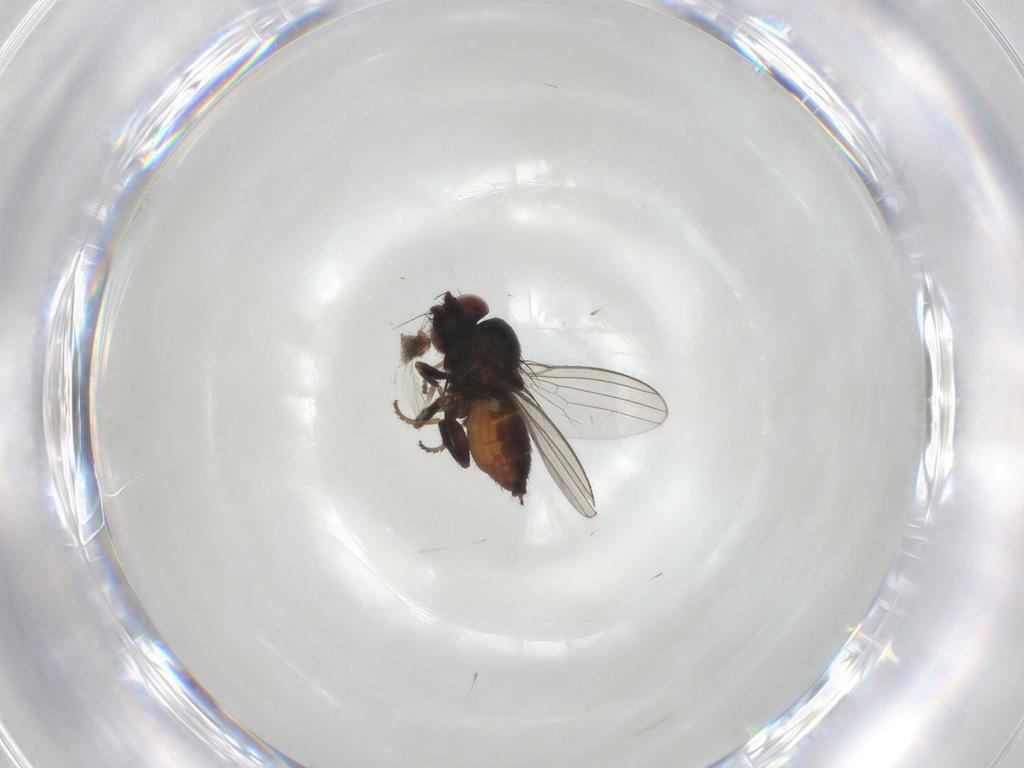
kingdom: Animalia
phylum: Arthropoda
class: Insecta
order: Diptera
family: Milichiidae
